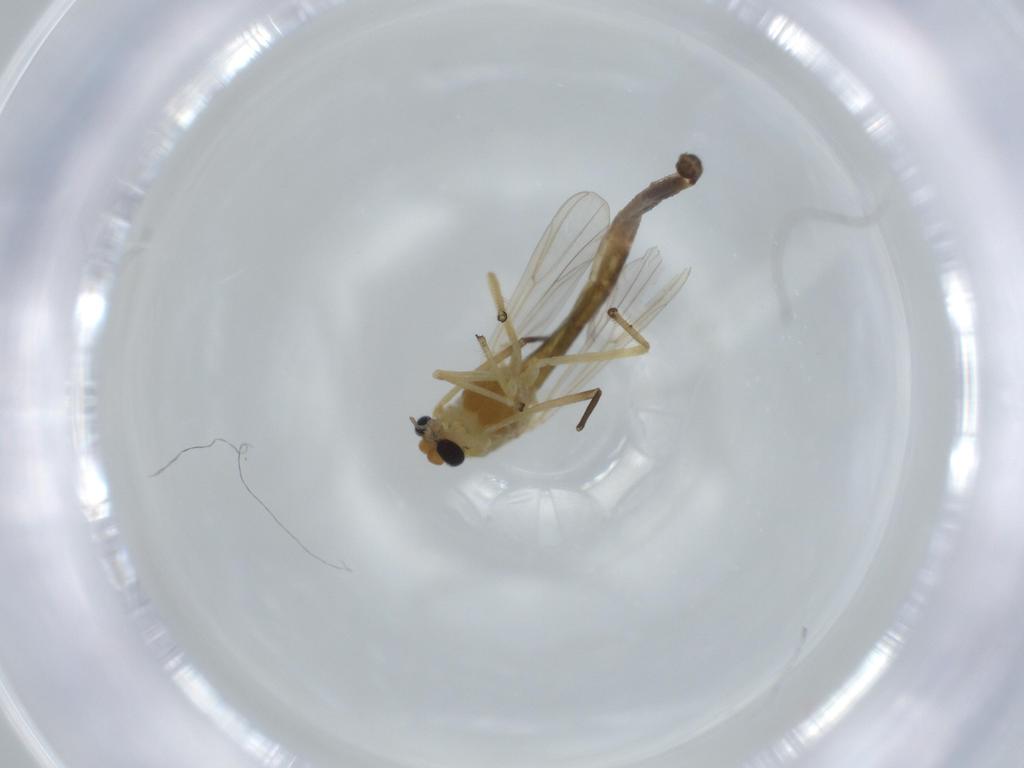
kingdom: Animalia
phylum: Arthropoda
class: Insecta
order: Diptera
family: Chironomidae
